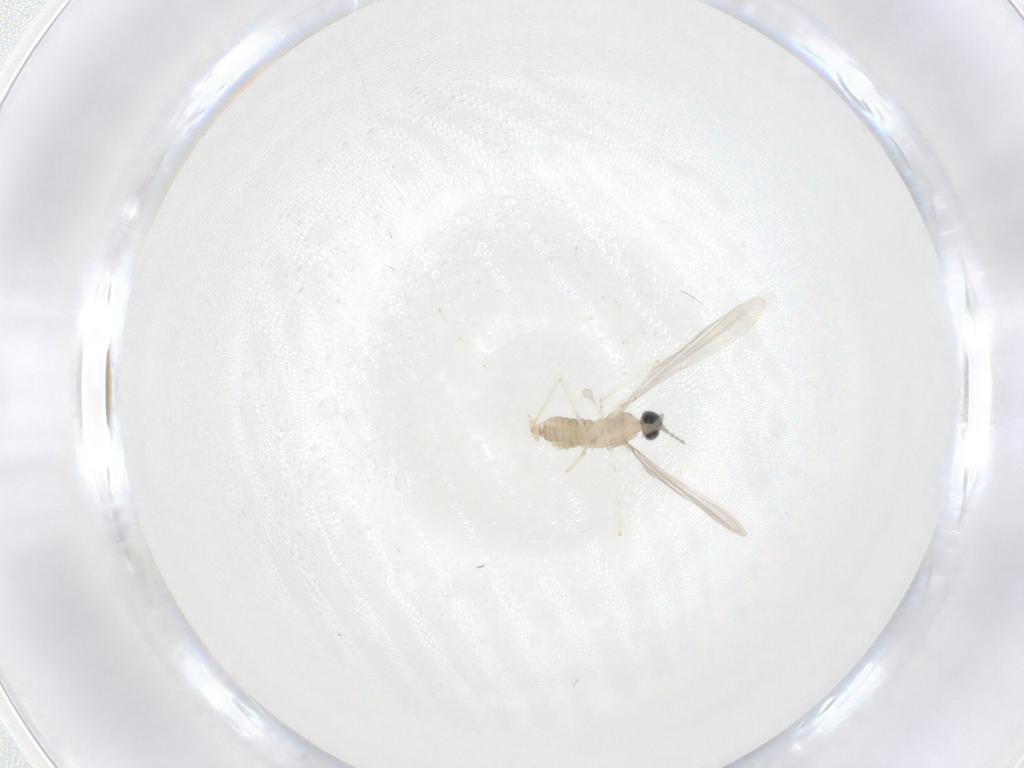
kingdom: Animalia
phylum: Arthropoda
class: Insecta
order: Diptera
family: Cecidomyiidae
